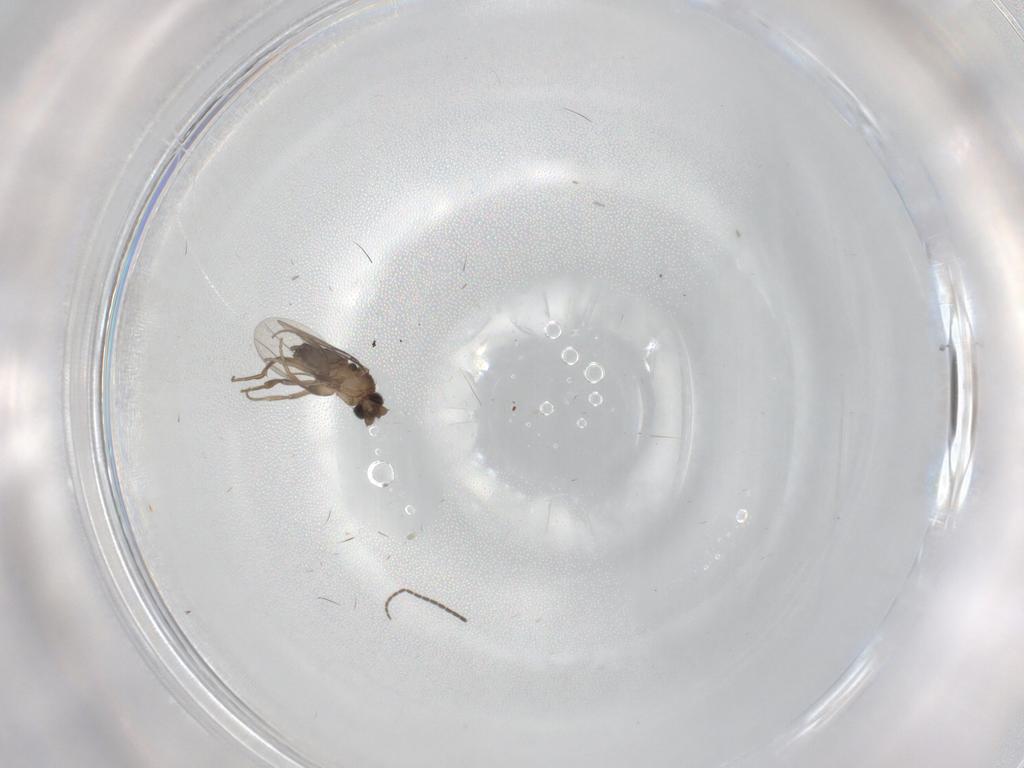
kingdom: Animalia
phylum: Arthropoda
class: Insecta
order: Diptera
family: Sciaridae
